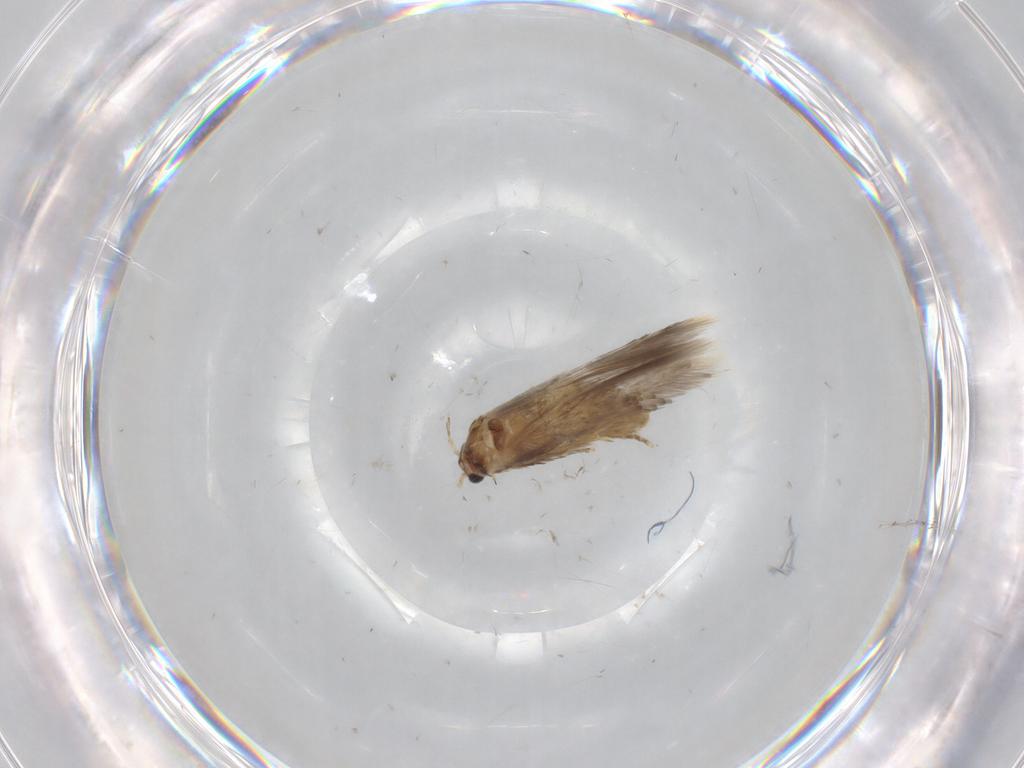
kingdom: Animalia
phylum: Arthropoda
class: Insecta
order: Lepidoptera
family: Nepticulidae
